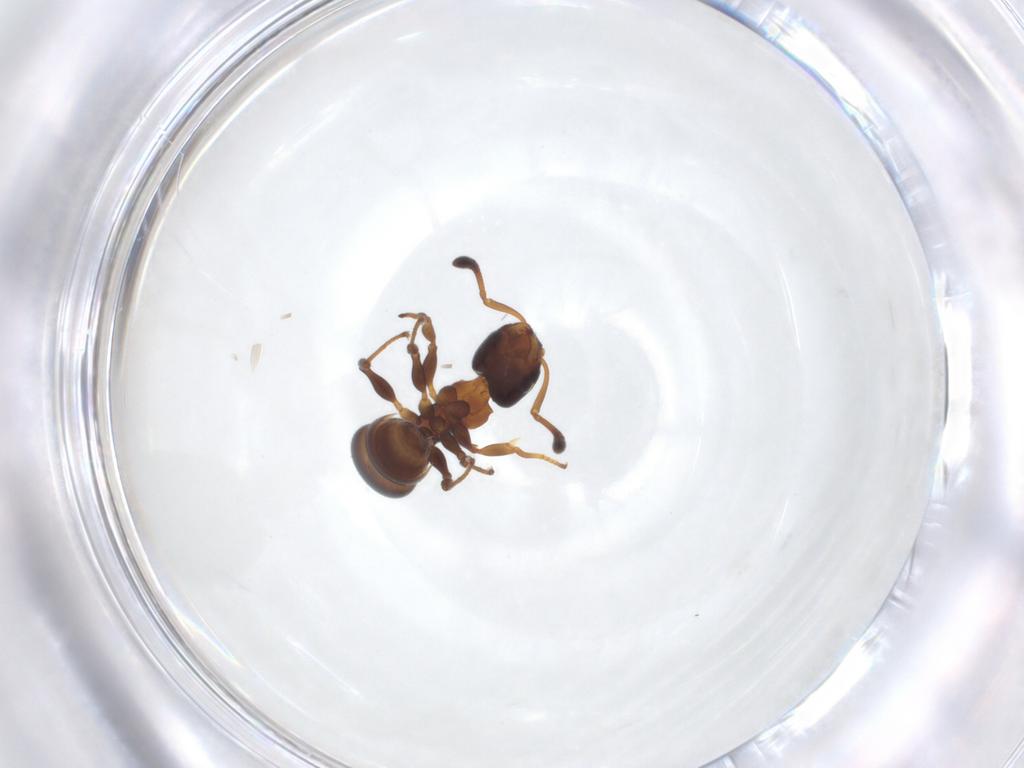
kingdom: Animalia
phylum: Arthropoda
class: Insecta
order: Hymenoptera
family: Formicidae
